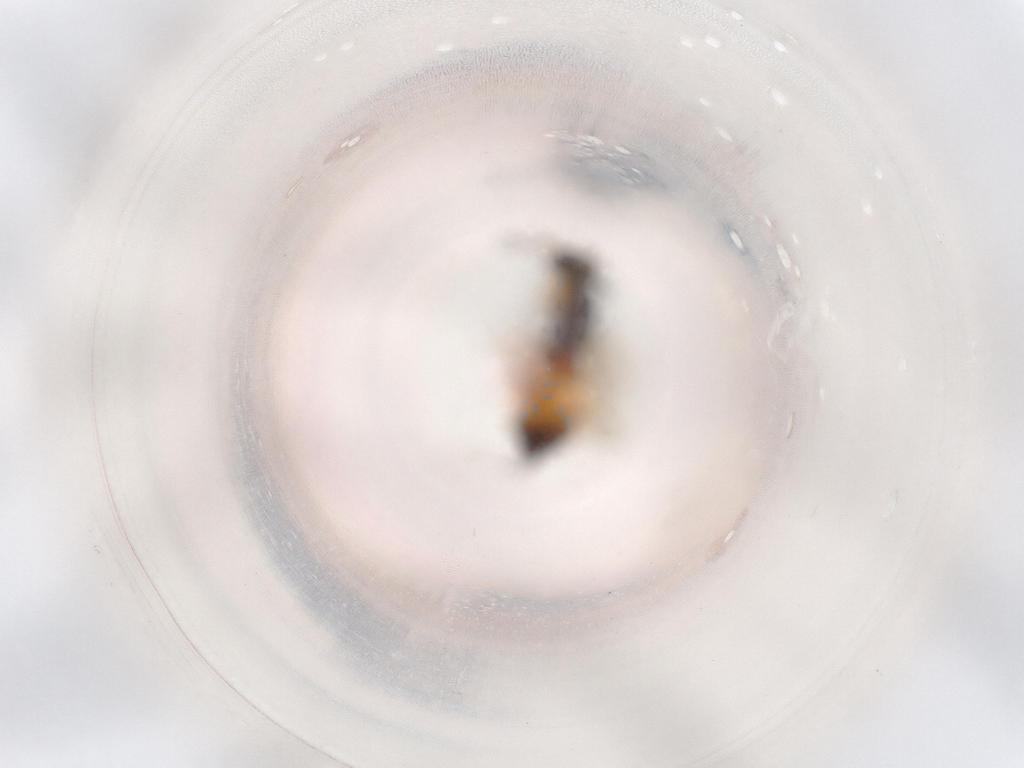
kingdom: Animalia
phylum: Arthropoda
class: Insecta
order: Hymenoptera
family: Scelionidae
